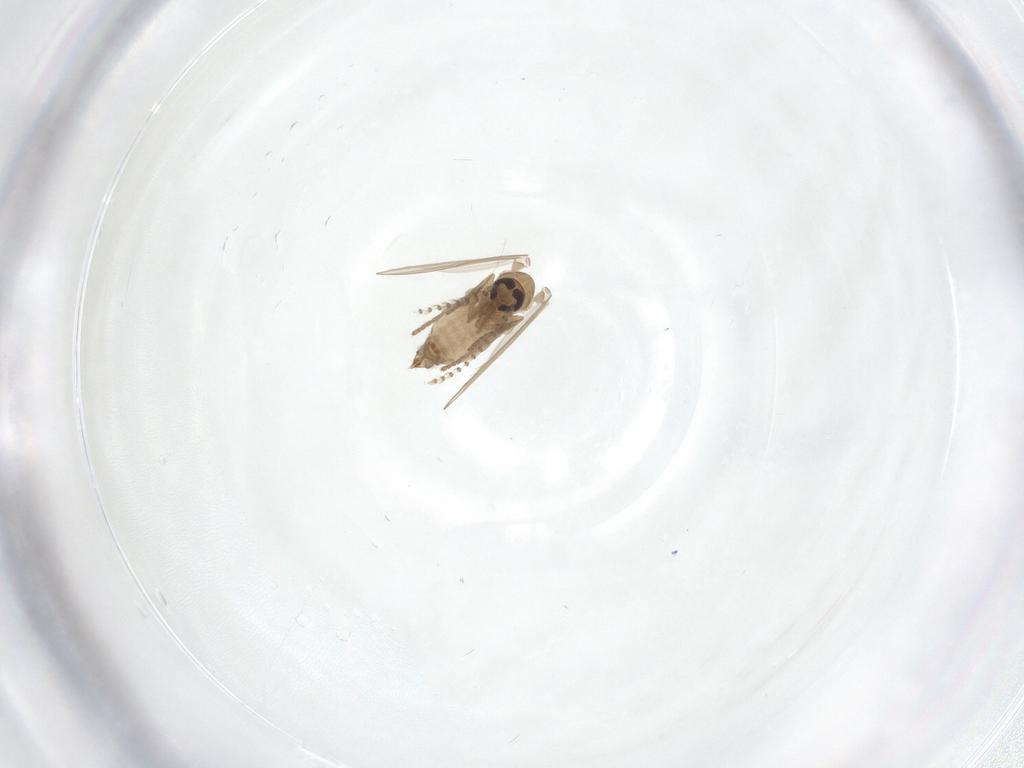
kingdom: Animalia
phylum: Arthropoda
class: Insecta
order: Diptera
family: Psychodidae
